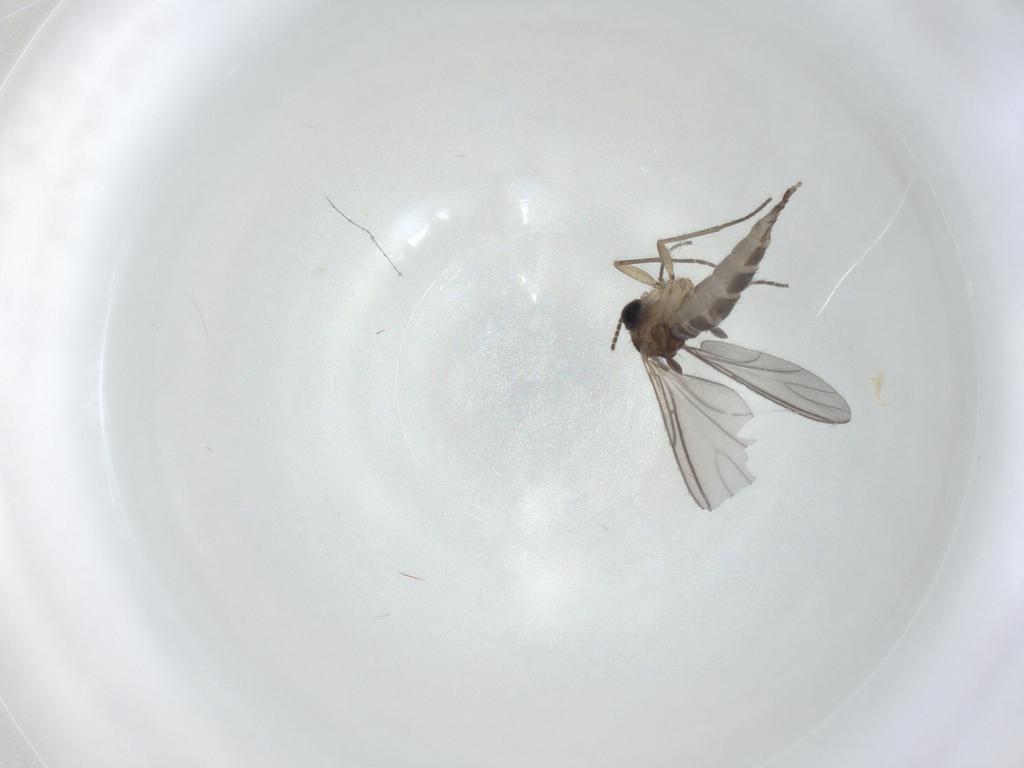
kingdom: Animalia
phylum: Arthropoda
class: Insecta
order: Diptera
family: Sciaridae
